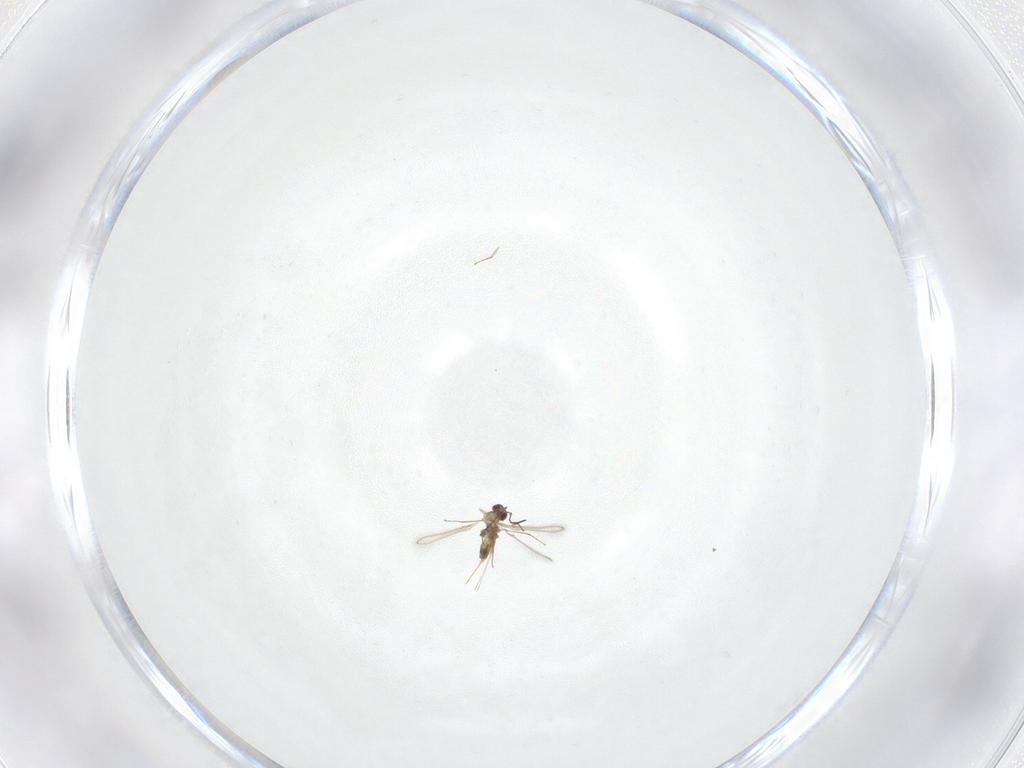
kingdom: Animalia
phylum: Arthropoda
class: Insecta
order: Hymenoptera
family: Mymaridae
